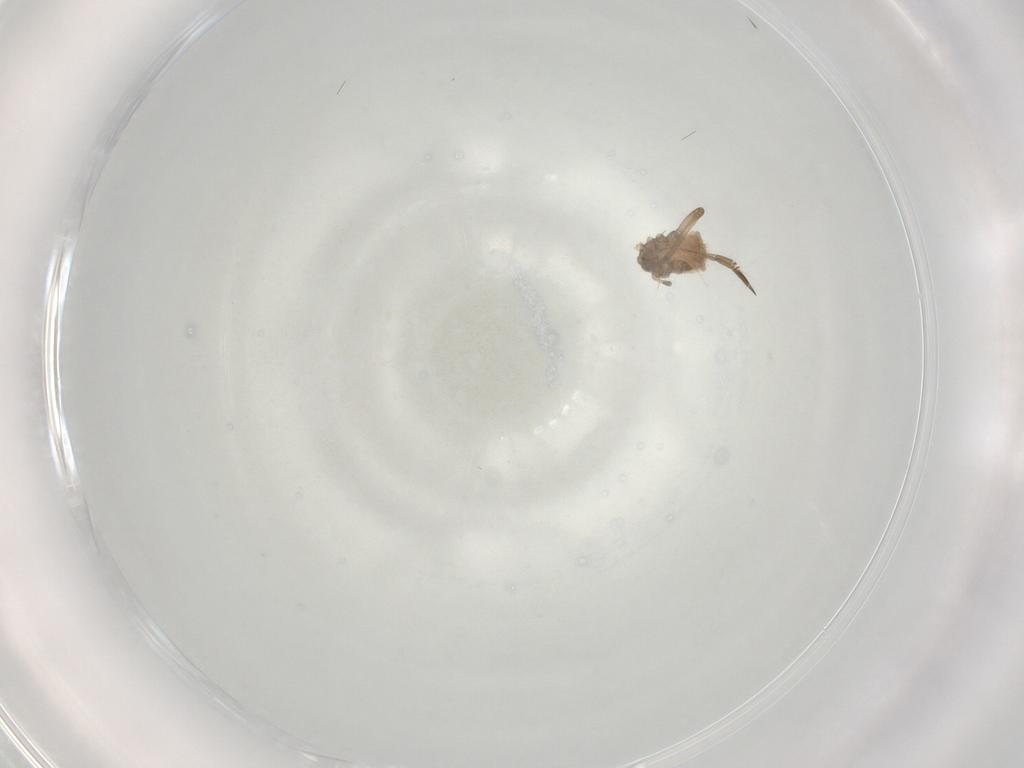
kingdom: Animalia
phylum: Arthropoda
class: Insecta
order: Hemiptera
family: Aphididae
